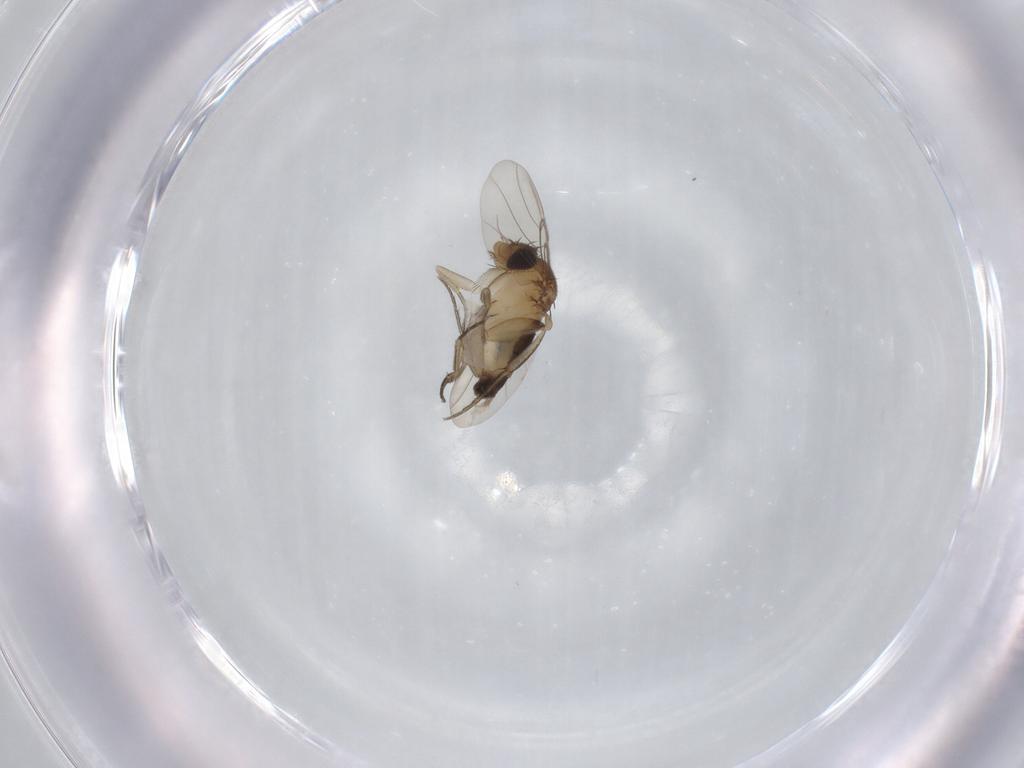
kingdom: Animalia
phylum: Arthropoda
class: Insecta
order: Diptera
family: Phoridae
